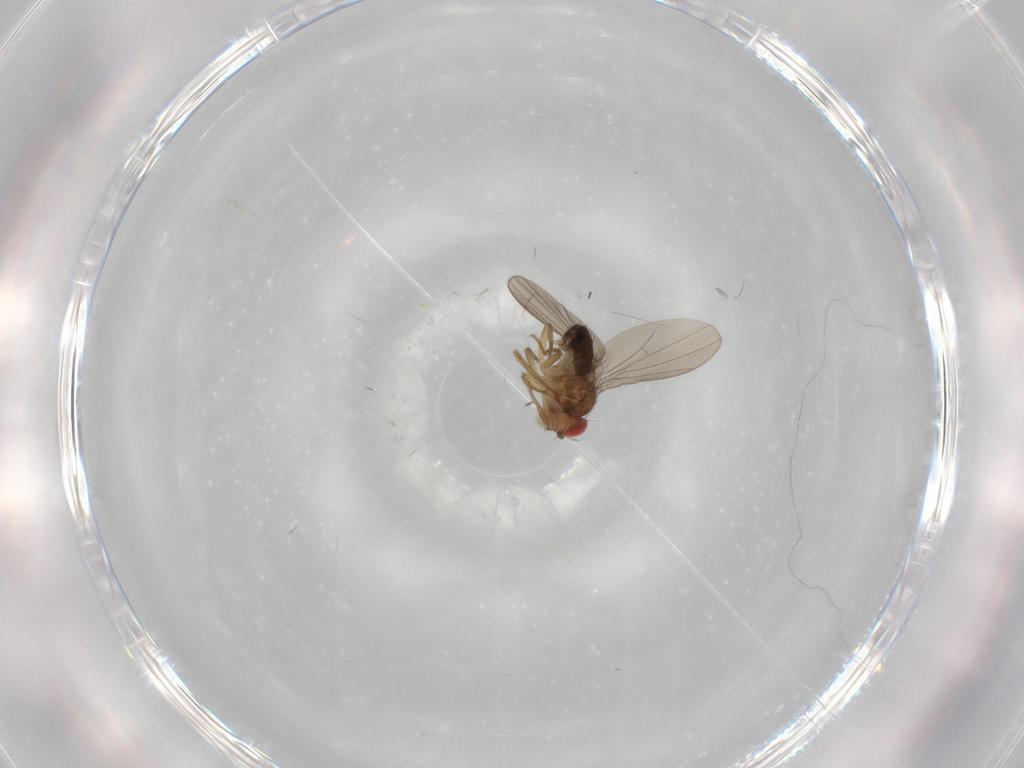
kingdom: Animalia
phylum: Arthropoda
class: Insecta
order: Diptera
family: Drosophilidae
